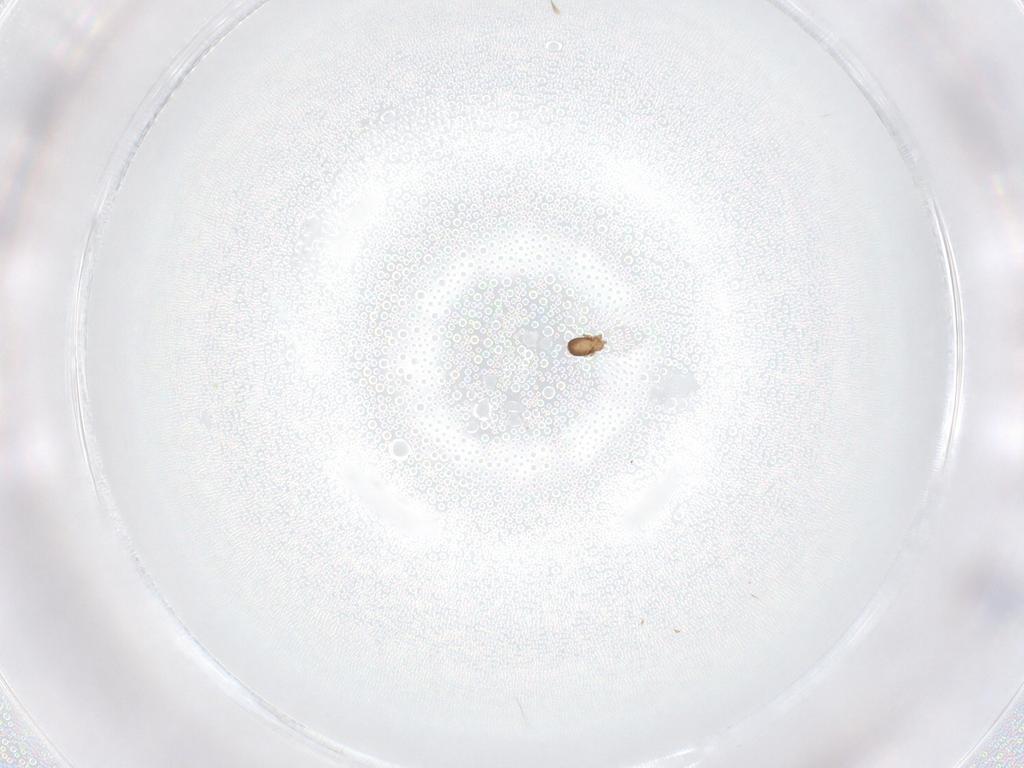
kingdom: Animalia
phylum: Arthropoda
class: Arachnida
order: Sarcoptiformes
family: Micreremidae
